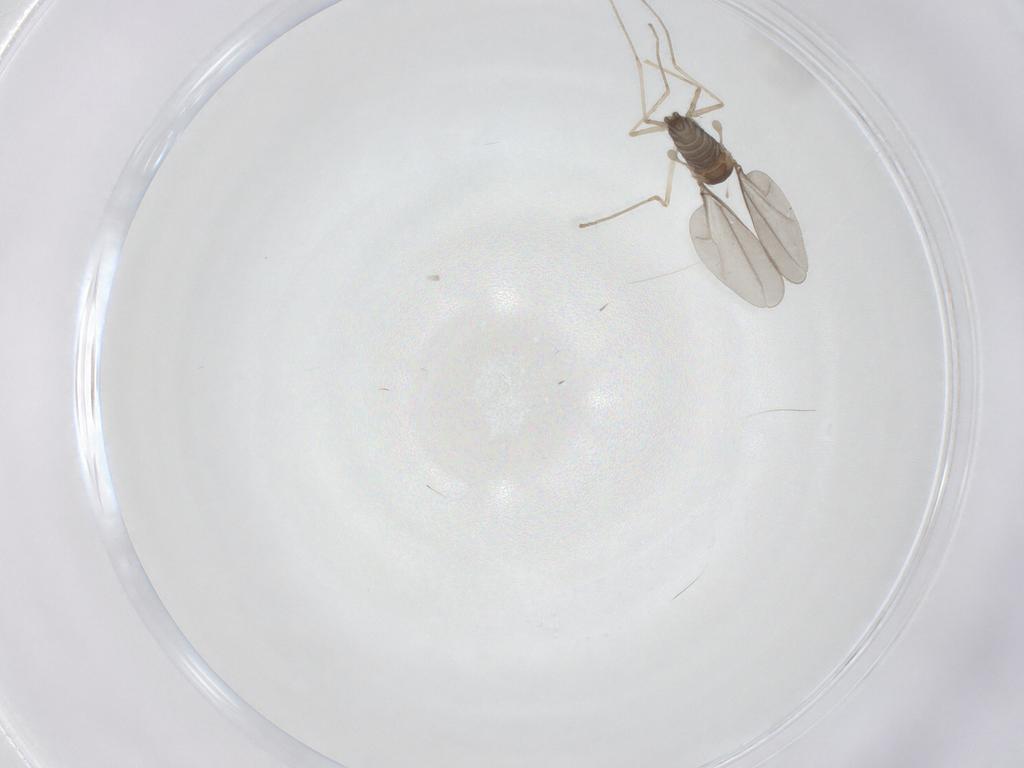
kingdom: Animalia
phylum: Arthropoda
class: Insecta
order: Diptera
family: Cecidomyiidae
